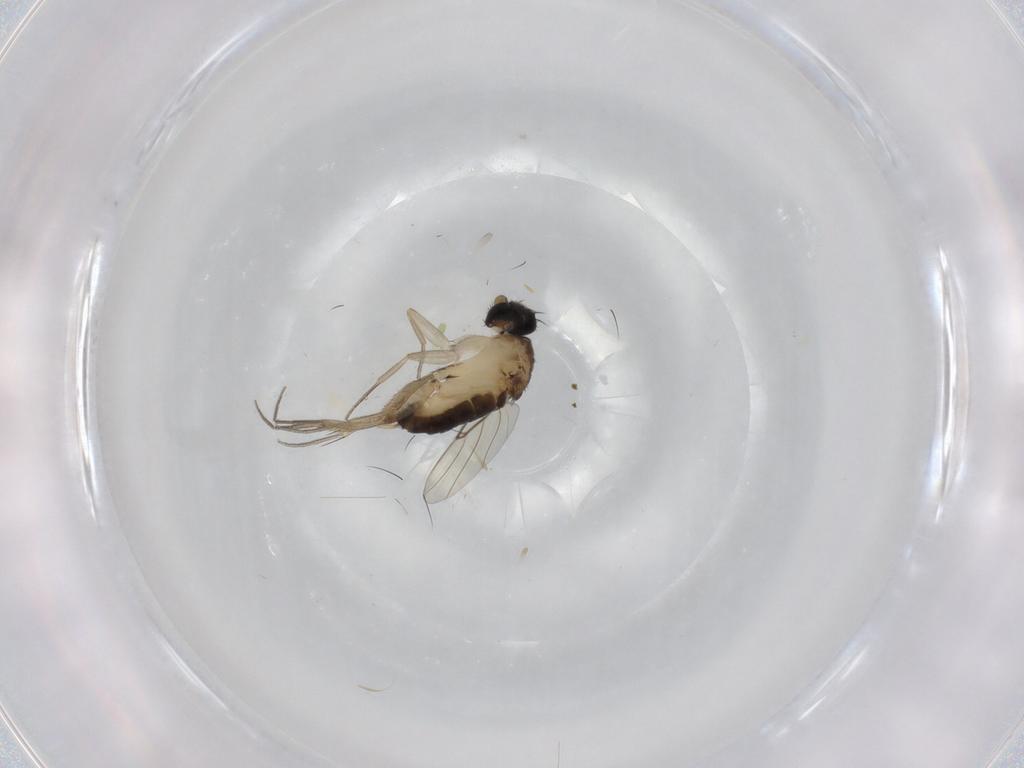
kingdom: Animalia
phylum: Arthropoda
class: Insecta
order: Diptera
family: Phoridae
